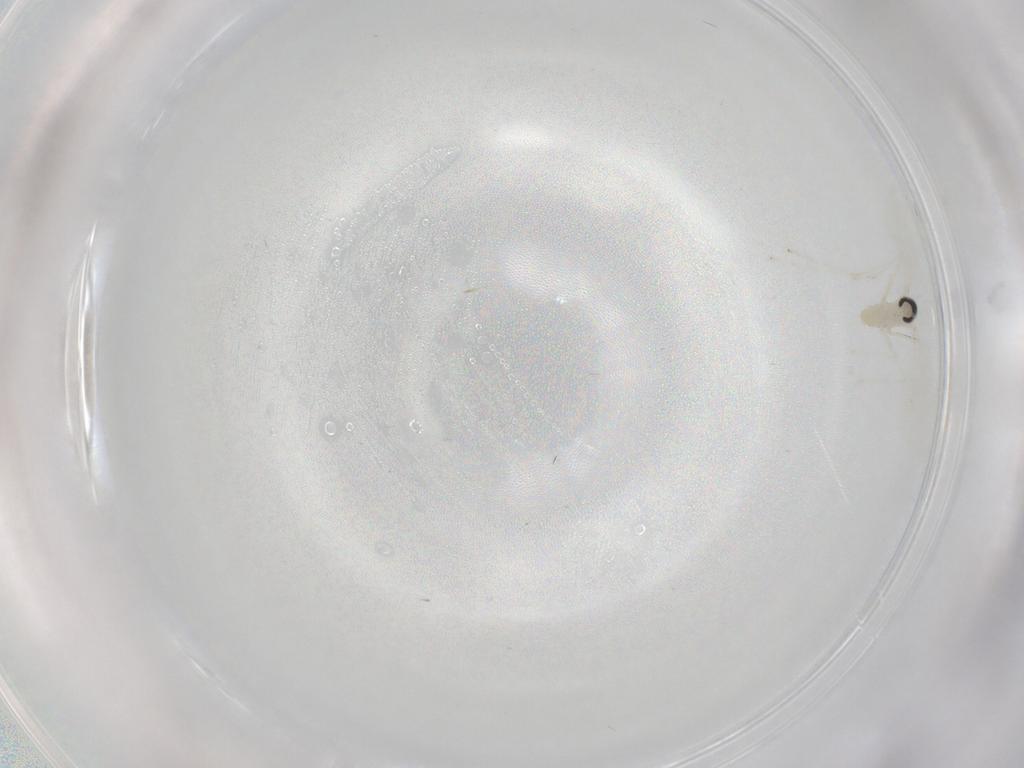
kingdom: Animalia
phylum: Arthropoda
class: Insecta
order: Diptera
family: Cecidomyiidae
